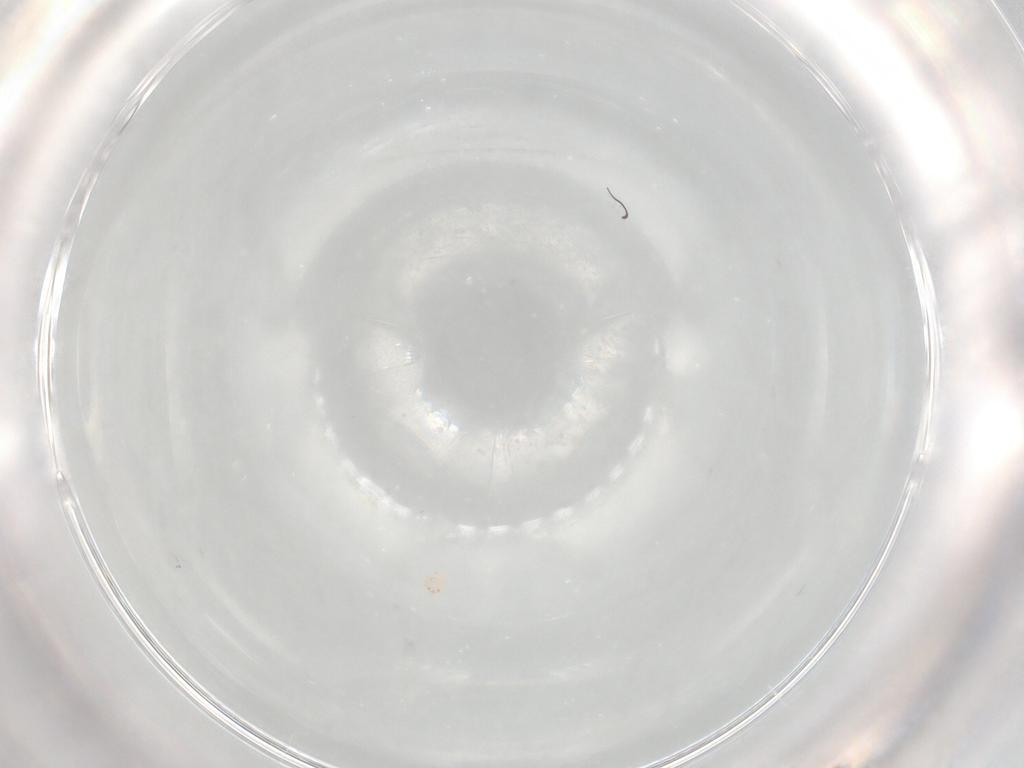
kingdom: Animalia
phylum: Arthropoda
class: Arachnida
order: Sarcoptiformes
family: Alycidae
